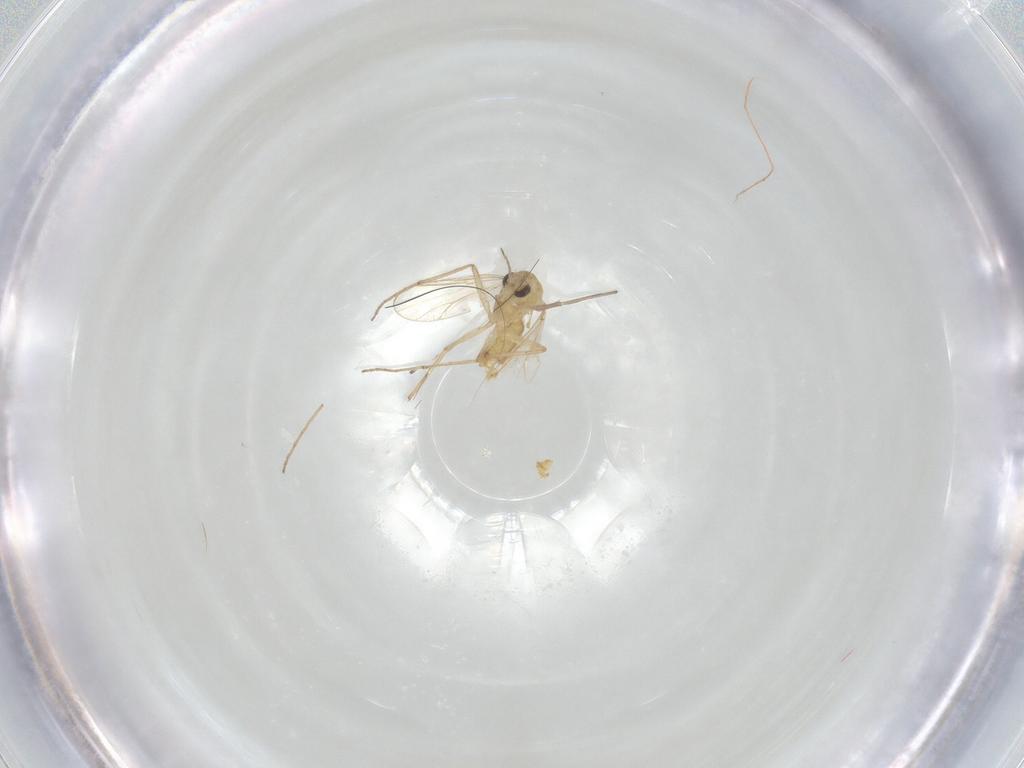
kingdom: Animalia
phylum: Arthropoda
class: Insecta
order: Diptera
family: Chironomidae
